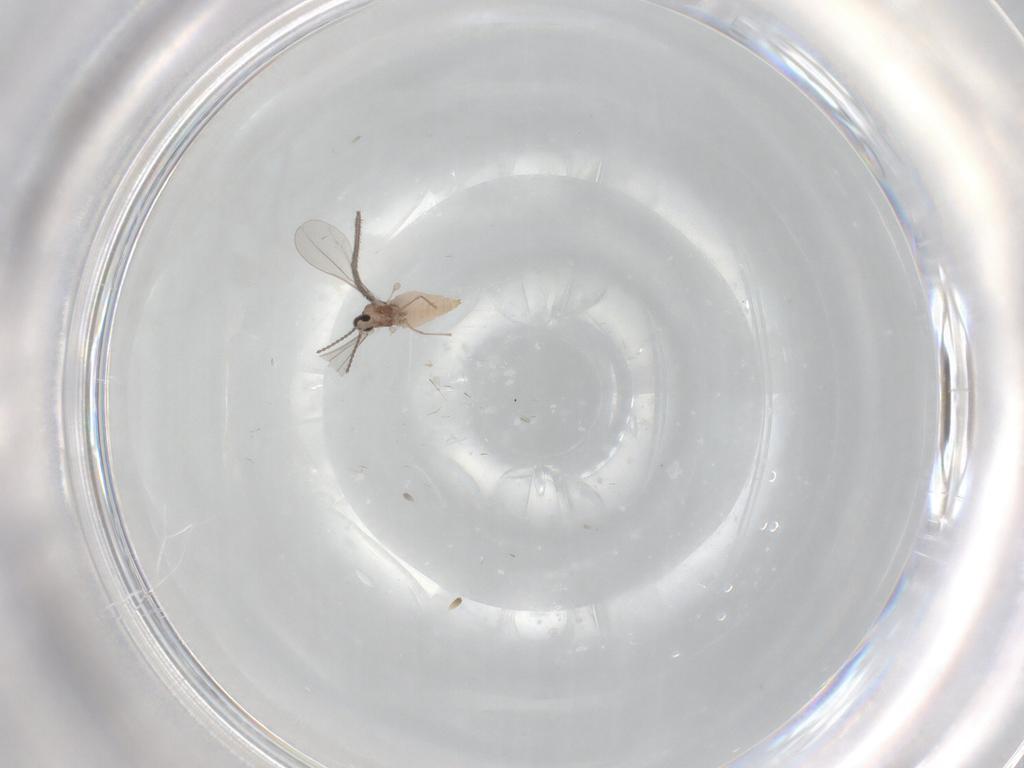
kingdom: Animalia
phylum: Arthropoda
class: Insecta
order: Diptera
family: Sciaridae
